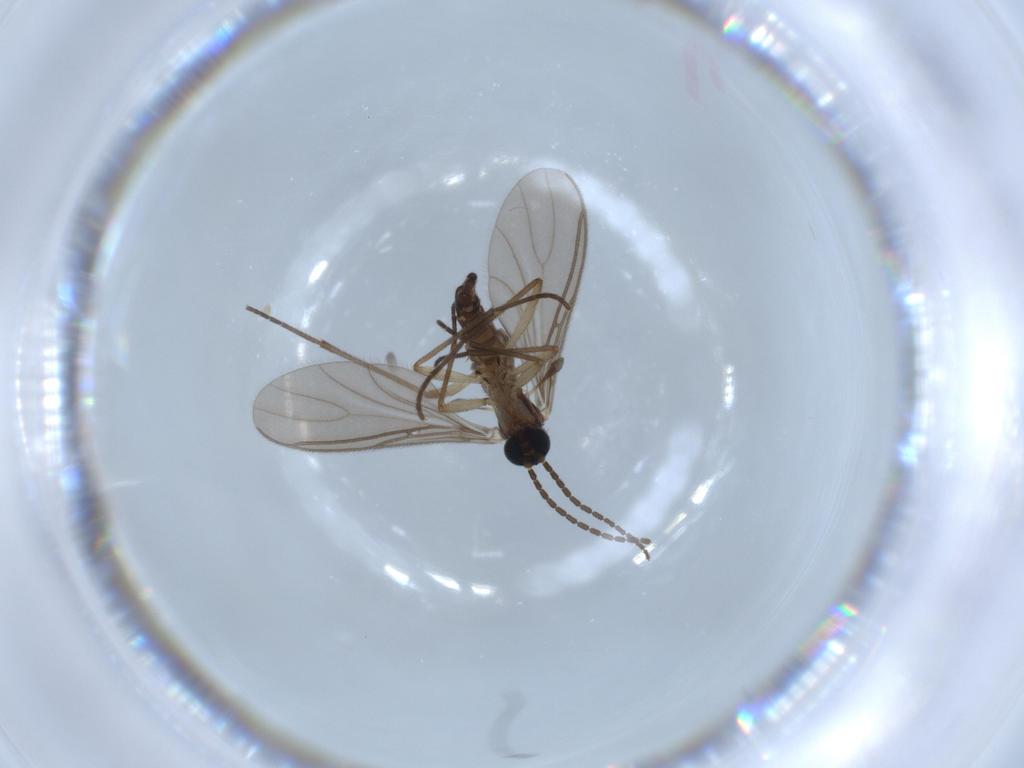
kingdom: Animalia
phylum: Arthropoda
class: Insecta
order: Diptera
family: Sciaridae
